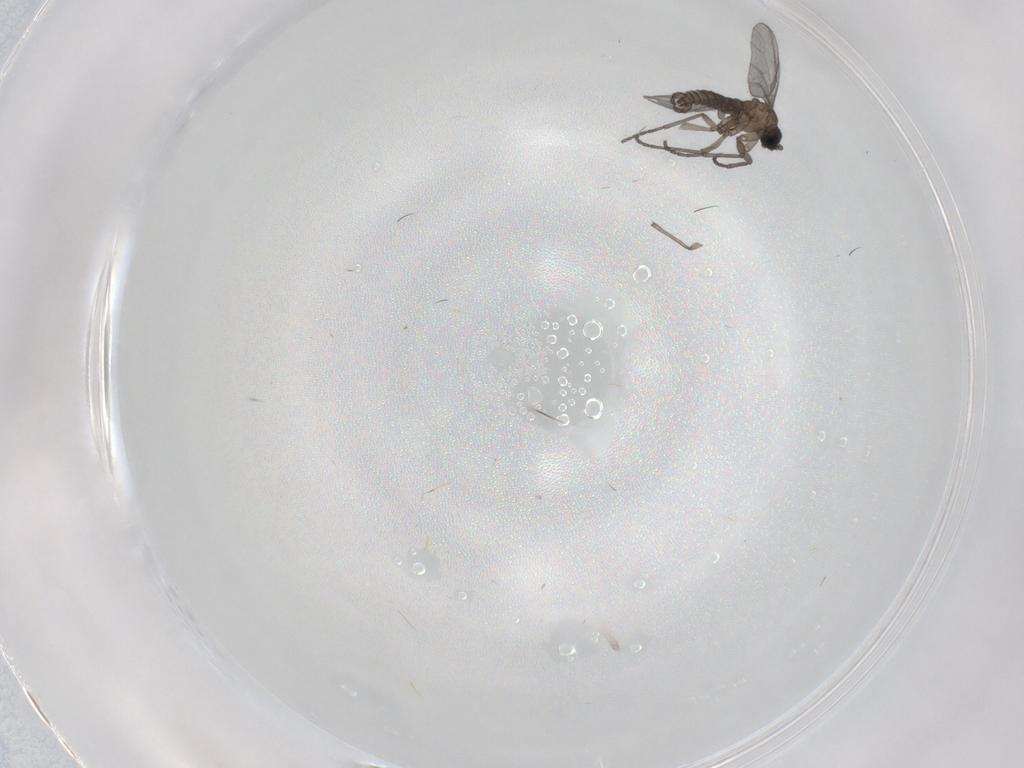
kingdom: Animalia
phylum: Arthropoda
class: Insecta
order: Diptera
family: Sciaridae
